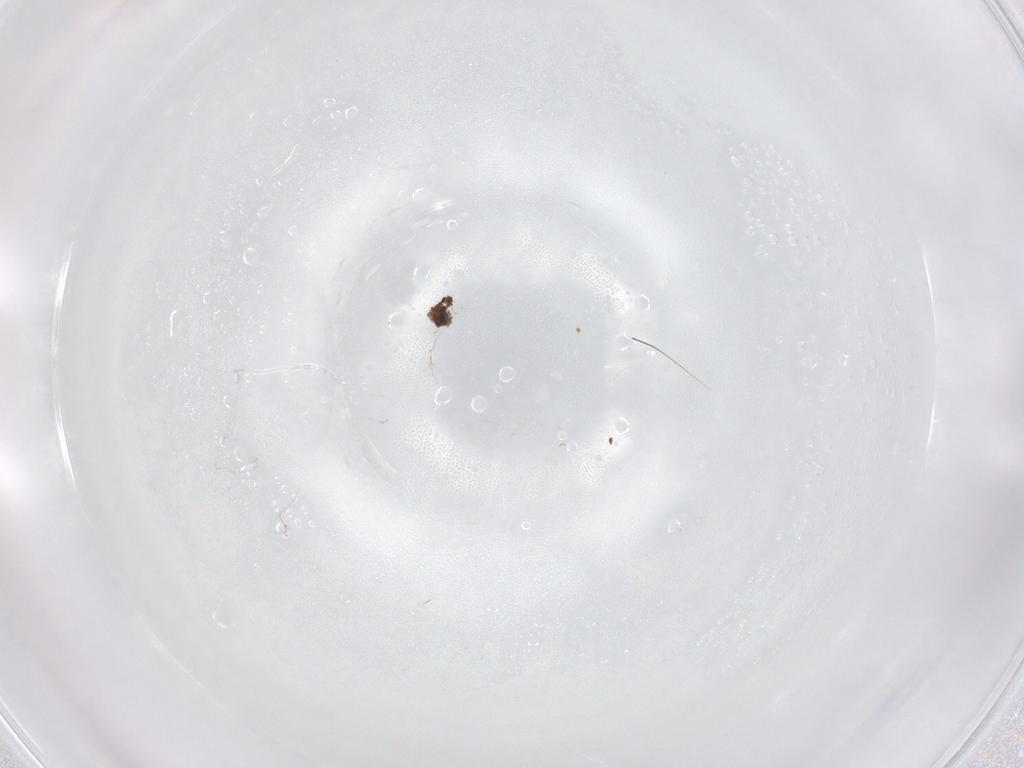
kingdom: Animalia
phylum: Arthropoda
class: Insecta
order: Diptera
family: Muscidae
